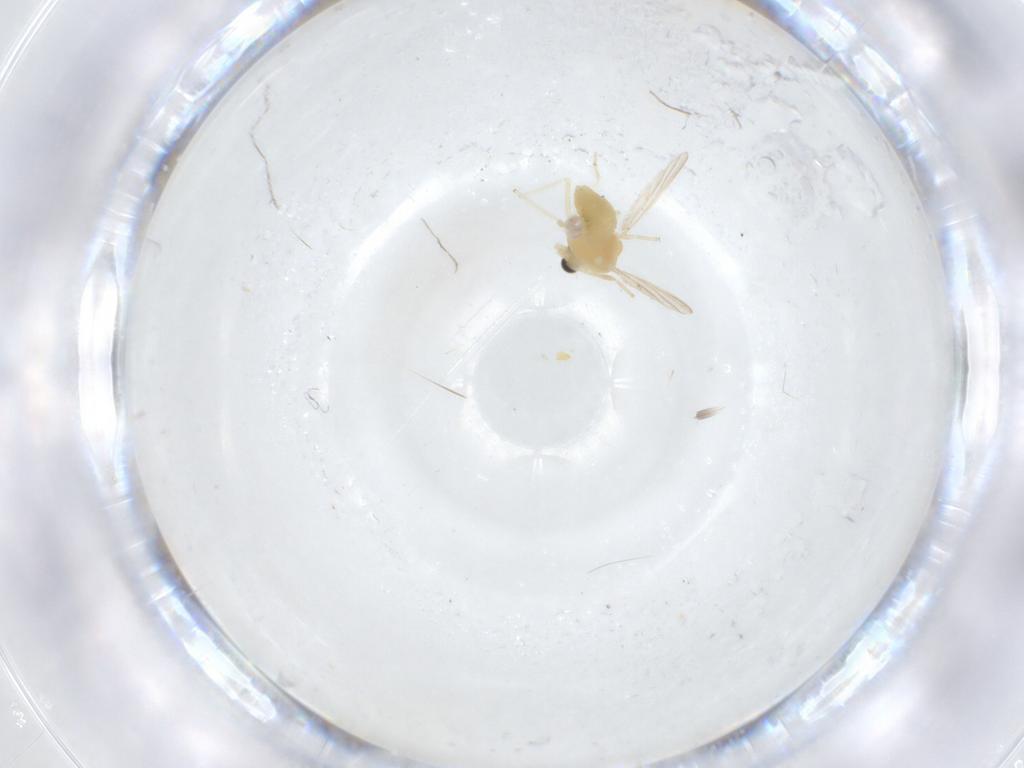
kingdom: Animalia
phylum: Arthropoda
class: Insecta
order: Diptera
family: Chironomidae
